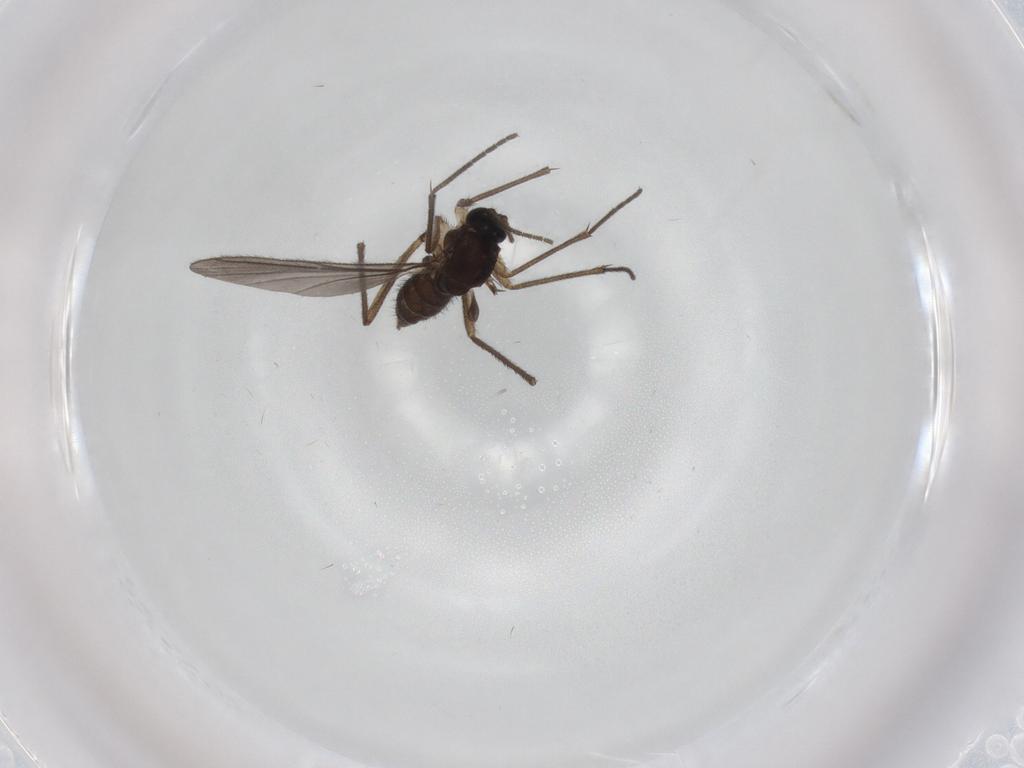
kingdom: Animalia
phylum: Arthropoda
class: Insecta
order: Diptera
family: Sciaridae
